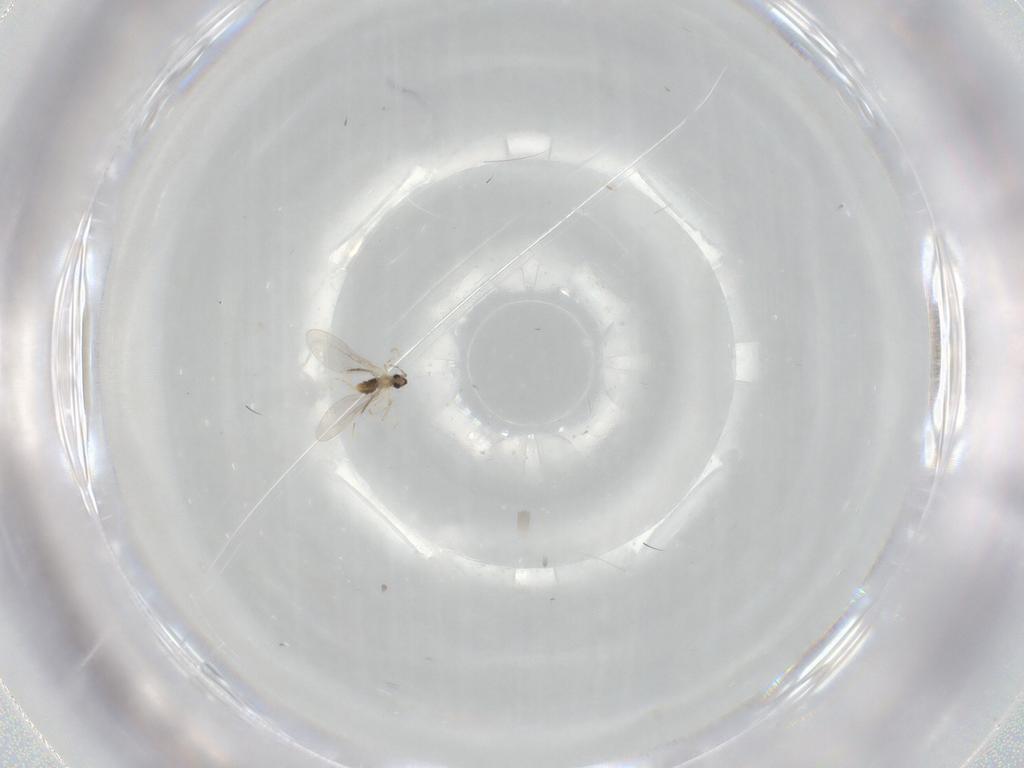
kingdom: Animalia
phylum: Arthropoda
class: Insecta
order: Diptera
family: Cecidomyiidae
